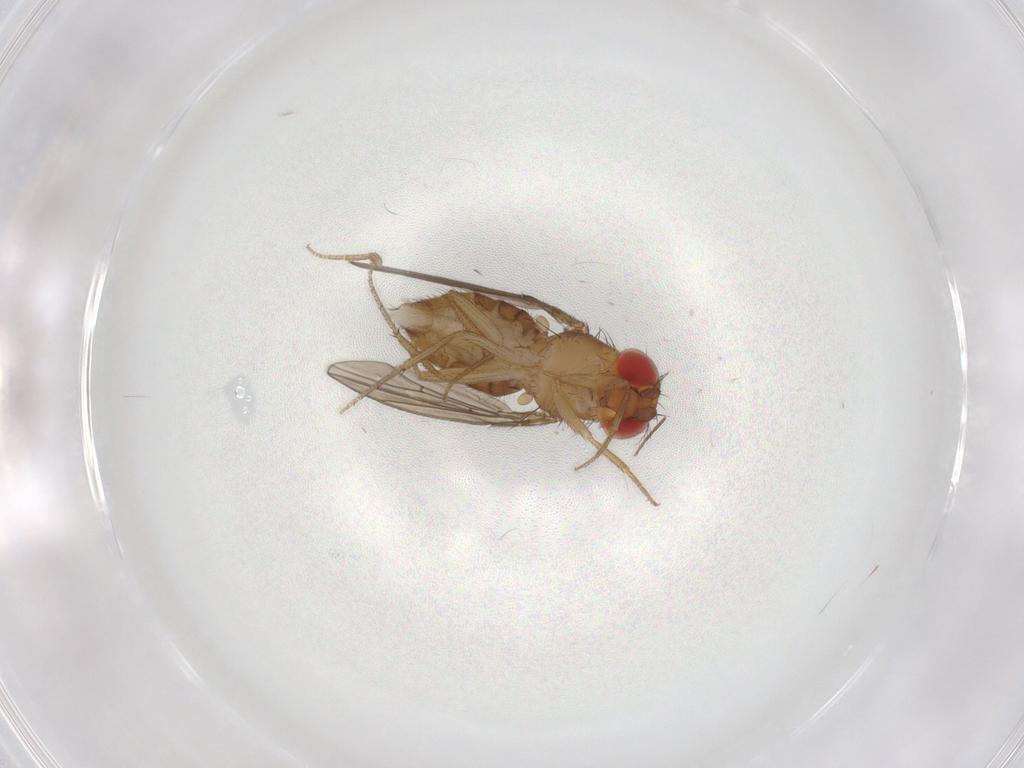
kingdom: Animalia
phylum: Arthropoda
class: Insecta
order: Diptera
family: Drosophilidae
